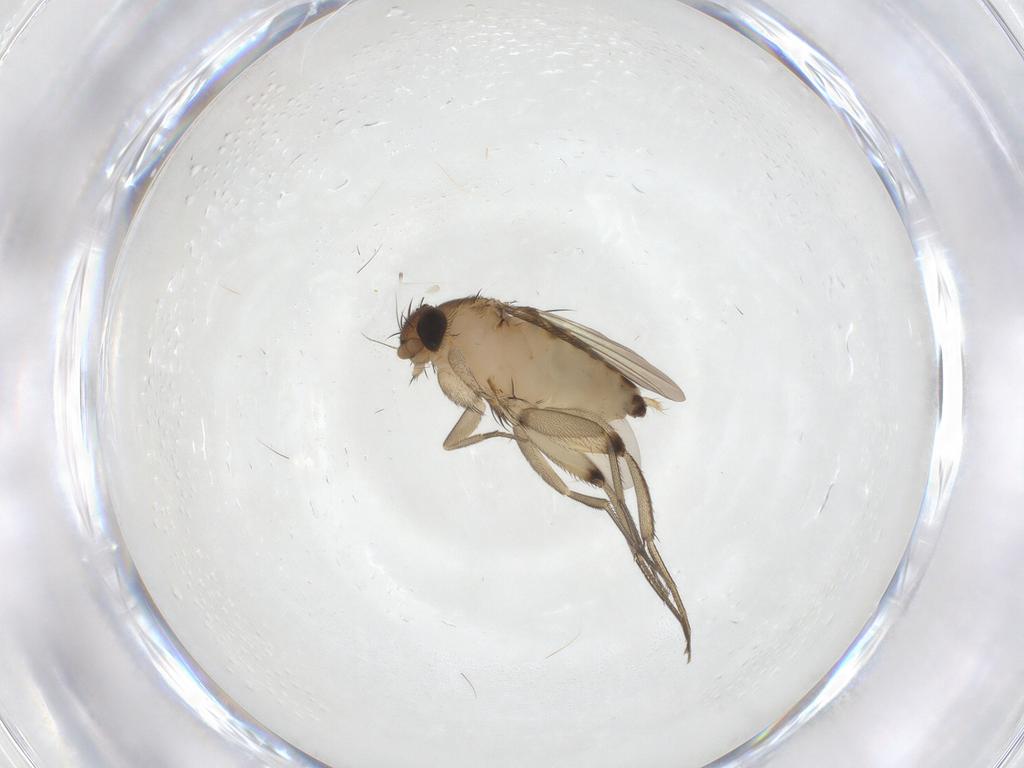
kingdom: Animalia
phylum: Arthropoda
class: Insecta
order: Diptera
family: Phoridae
